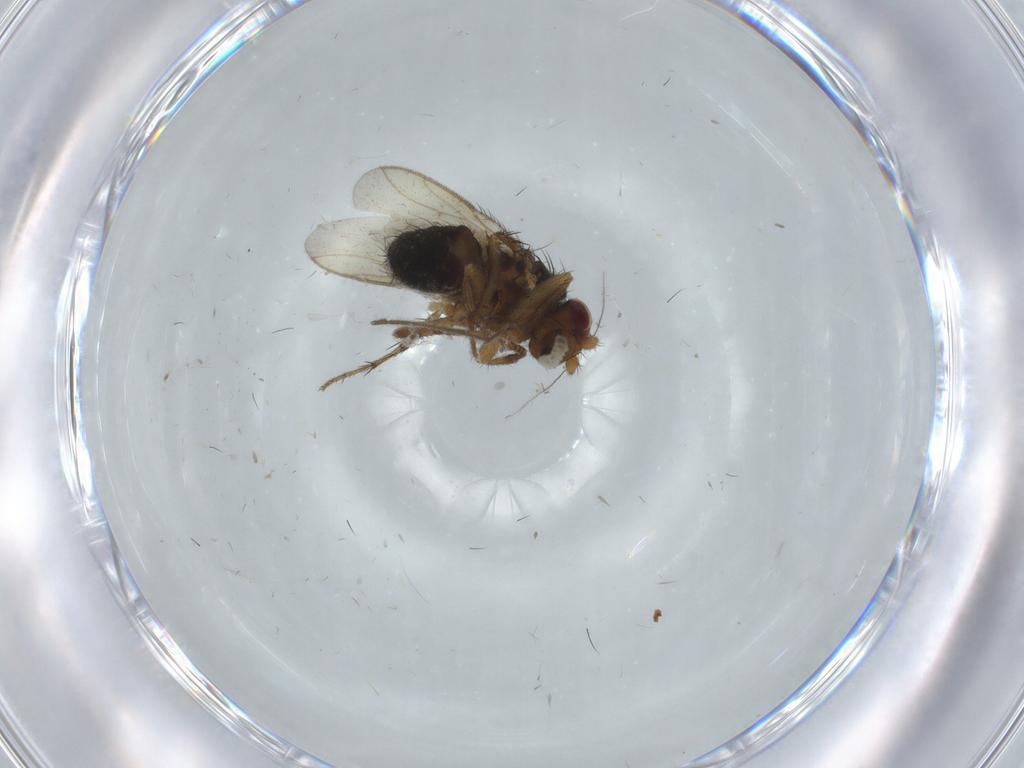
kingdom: Animalia
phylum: Arthropoda
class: Insecta
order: Diptera
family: Sphaeroceridae
